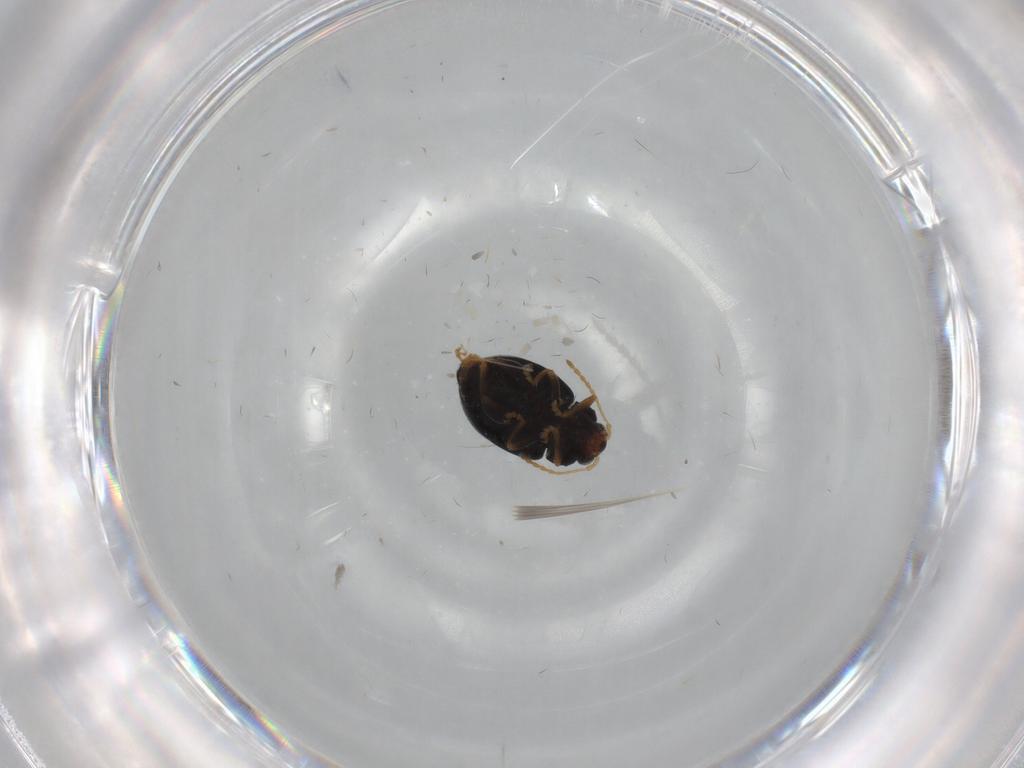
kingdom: Animalia
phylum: Arthropoda
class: Insecta
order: Coleoptera
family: Chrysomelidae
